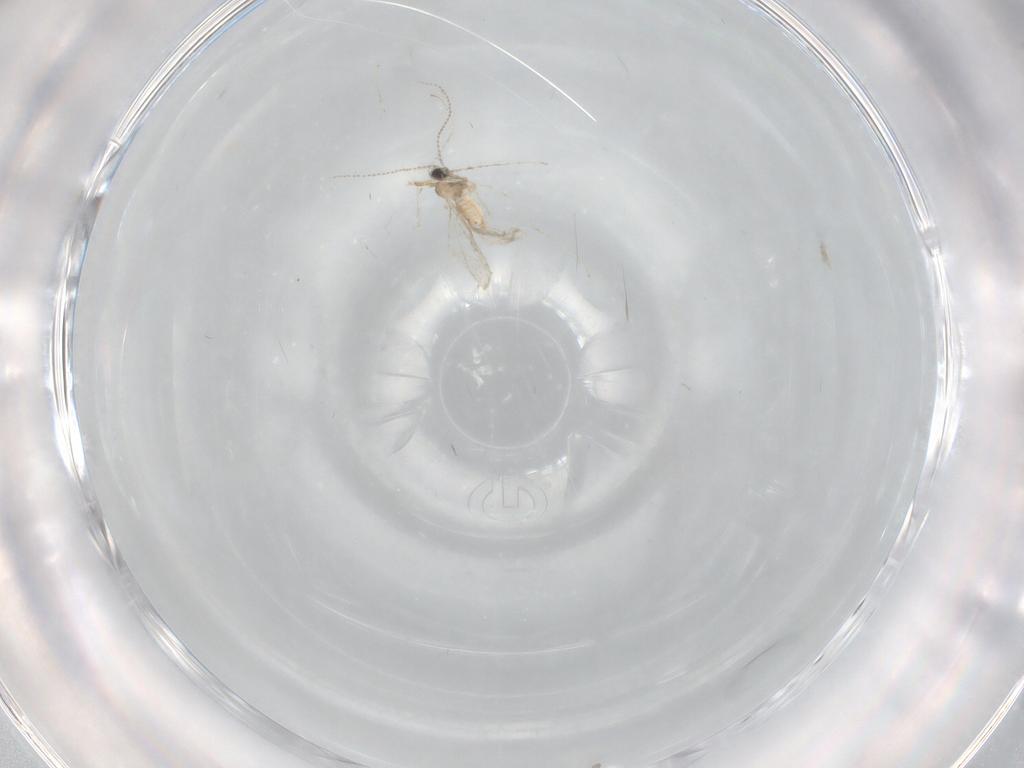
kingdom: Animalia
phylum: Arthropoda
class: Insecta
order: Diptera
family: Cecidomyiidae
